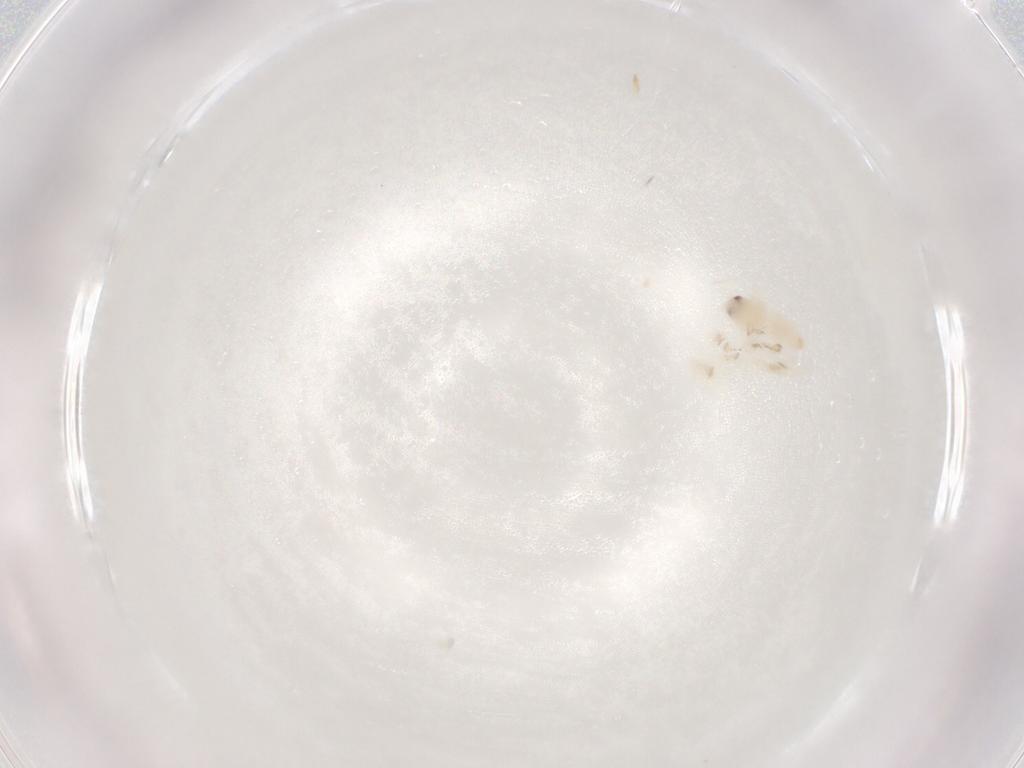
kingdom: Animalia
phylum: Arthropoda
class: Insecta
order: Hemiptera
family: Aleyrodidae
